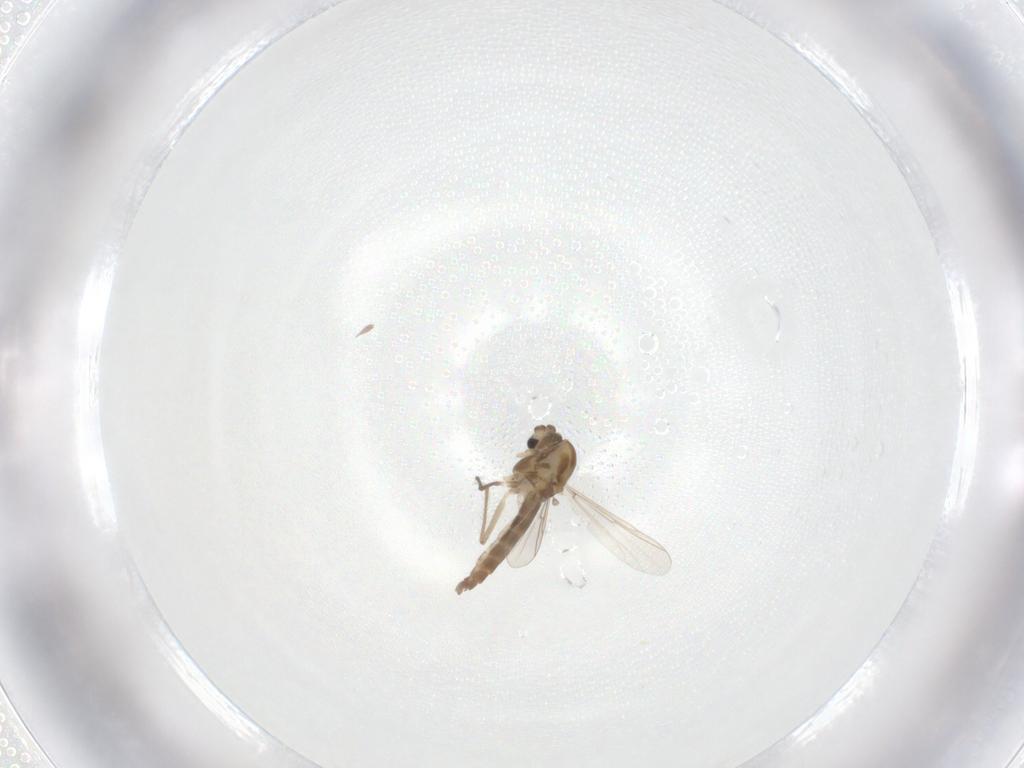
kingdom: Animalia
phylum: Arthropoda
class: Insecta
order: Diptera
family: Chironomidae
